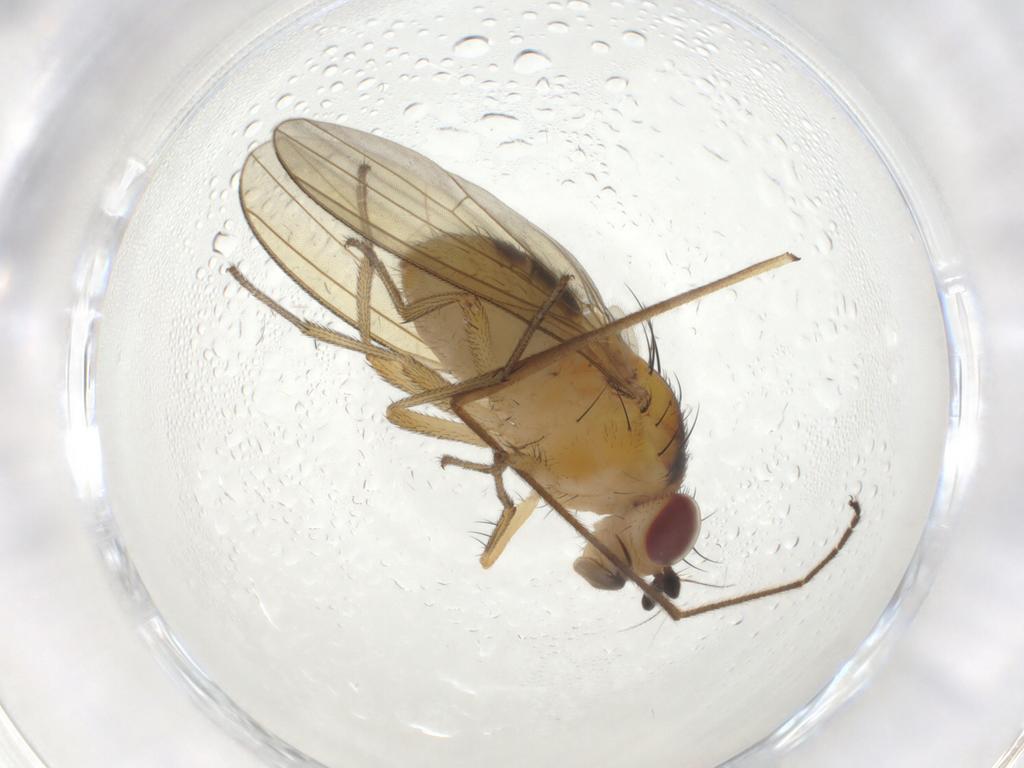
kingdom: Animalia
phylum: Arthropoda
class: Insecta
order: Diptera
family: Limoniidae
